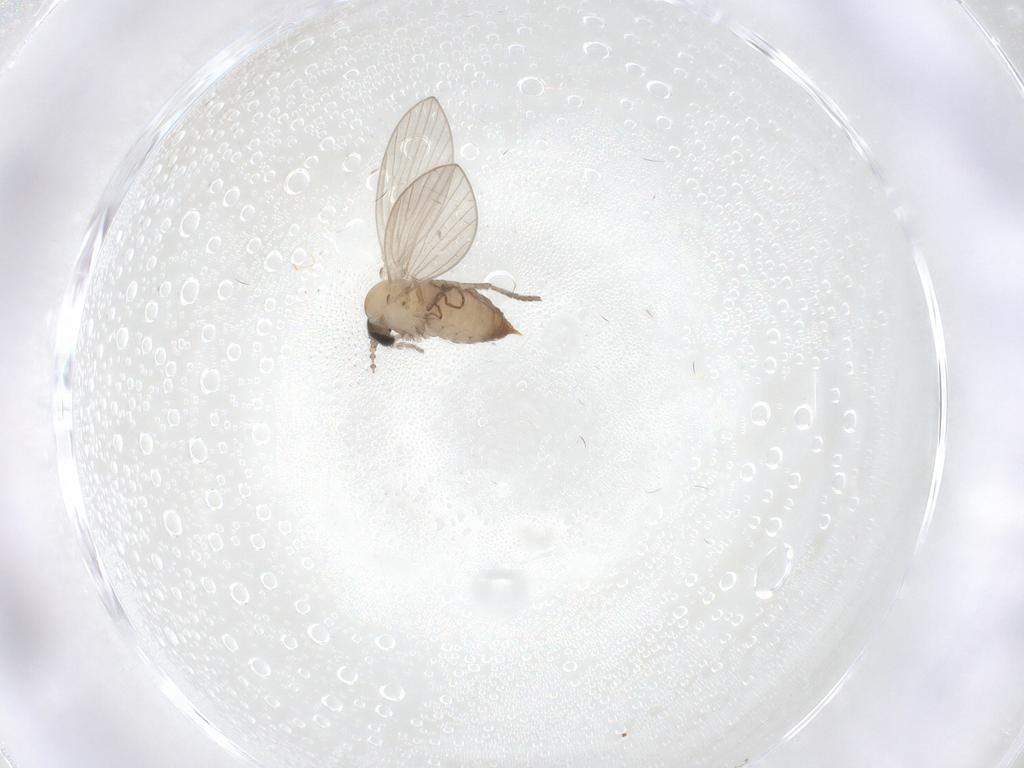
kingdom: Animalia
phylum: Arthropoda
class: Insecta
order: Diptera
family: Psychodidae
